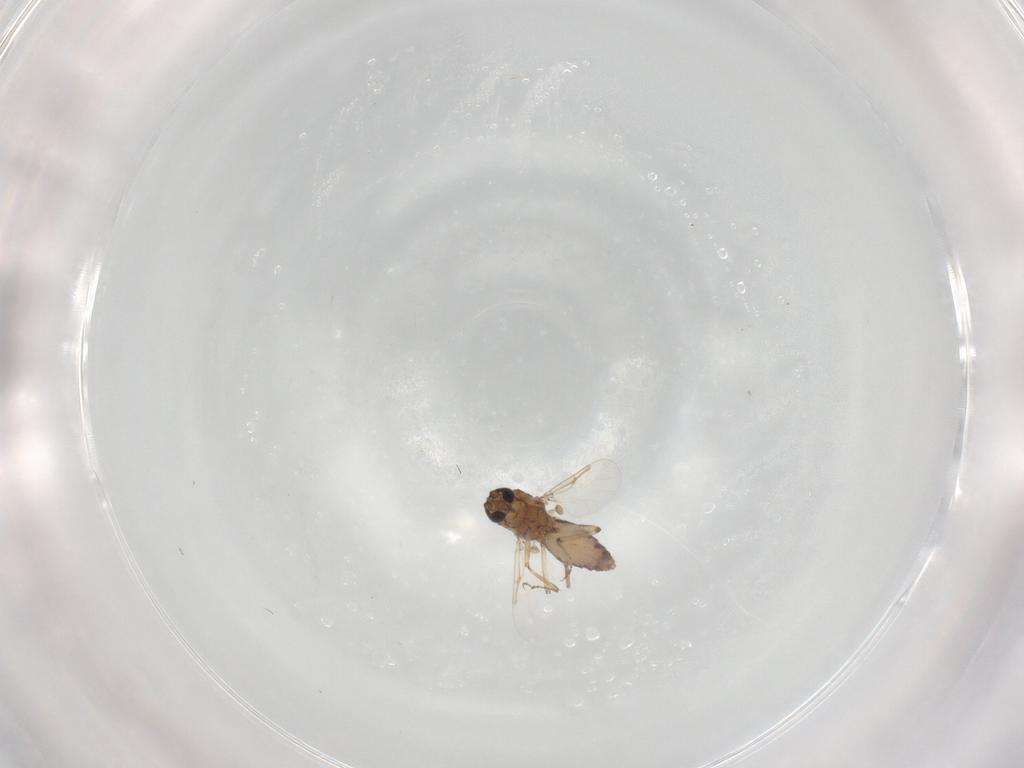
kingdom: Animalia
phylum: Arthropoda
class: Insecta
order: Diptera
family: Ceratopogonidae
